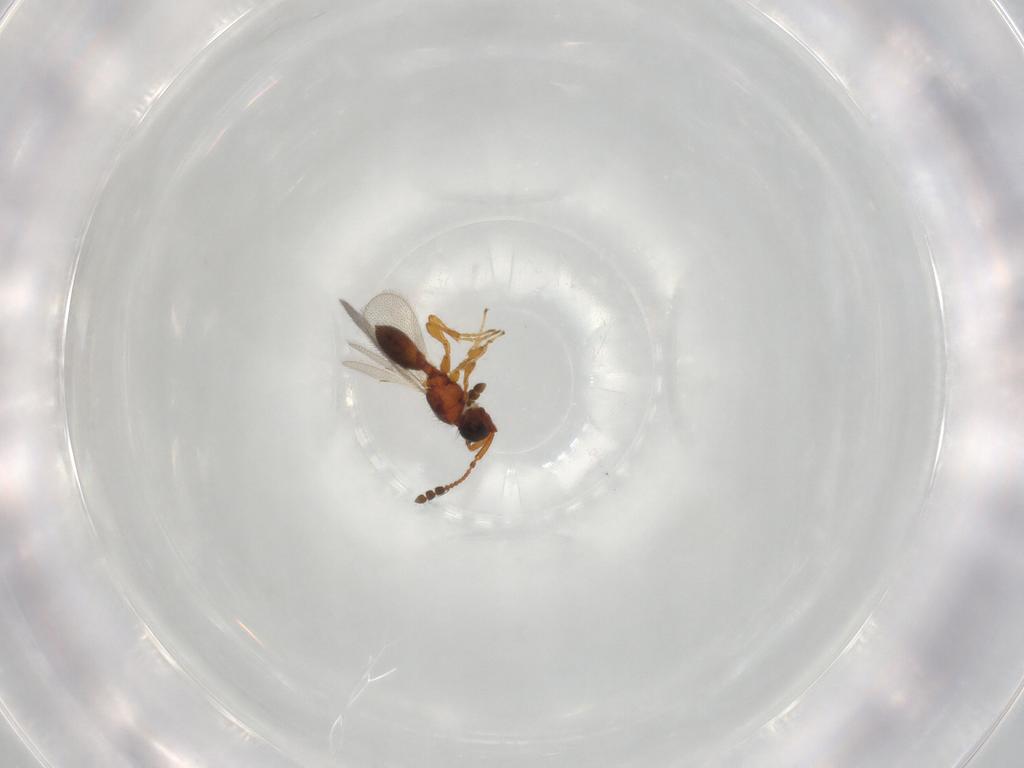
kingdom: Animalia
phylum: Arthropoda
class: Insecta
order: Hymenoptera
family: Diapriidae
